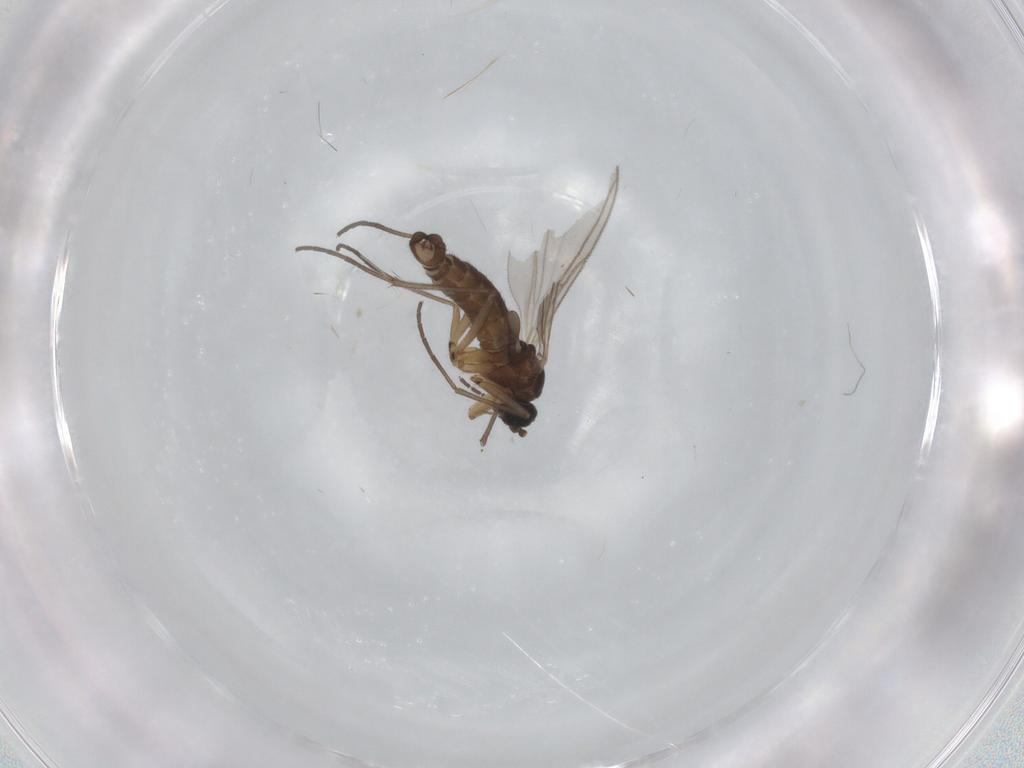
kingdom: Animalia
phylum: Arthropoda
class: Insecta
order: Diptera
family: Sciaridae
